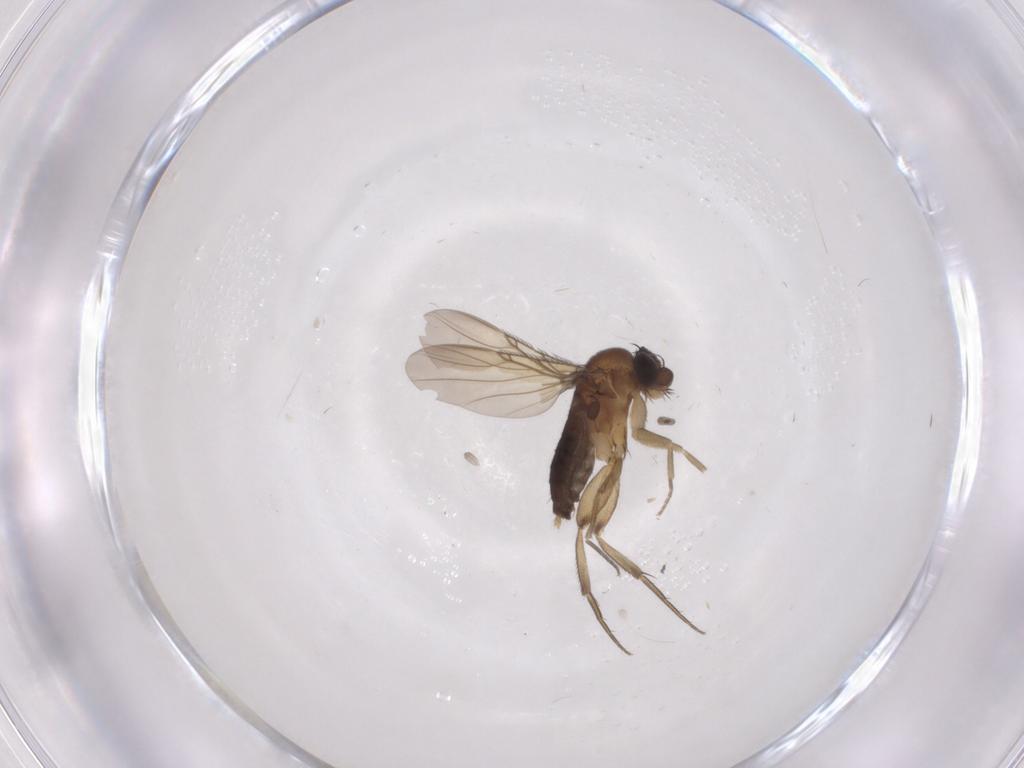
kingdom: Animalia
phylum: Arthropoda
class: Insecta
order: Diptera
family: Phoridae
